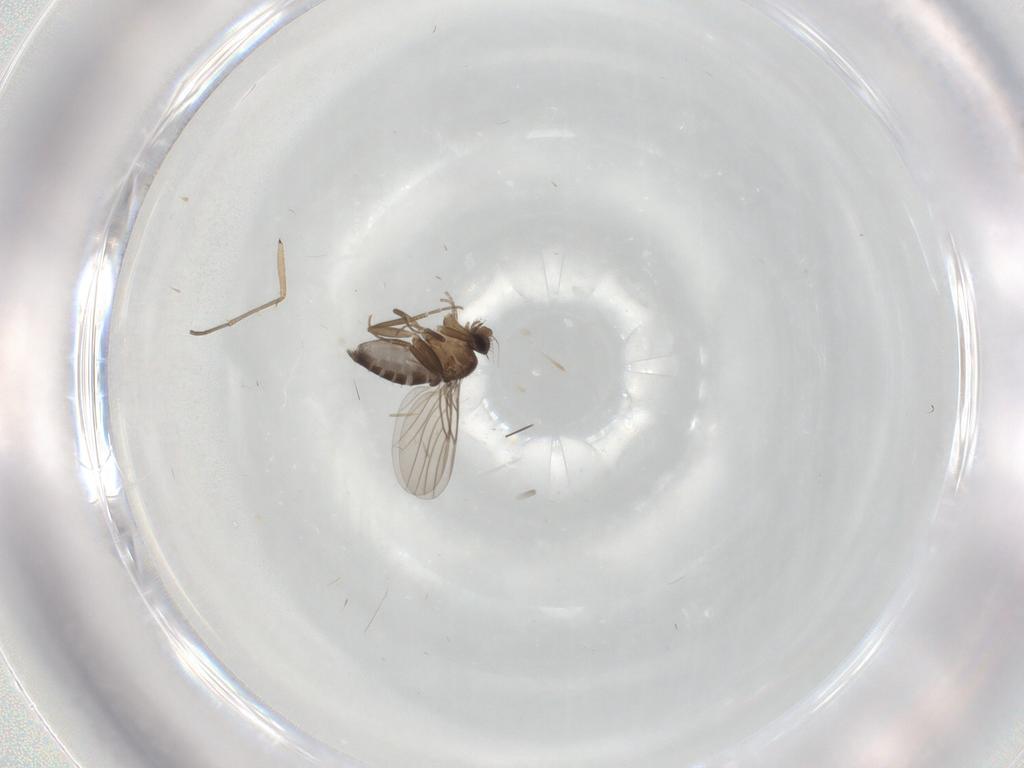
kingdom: Animalia
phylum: Arthropoda
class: Insecta
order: Diptera
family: Sciaridae
